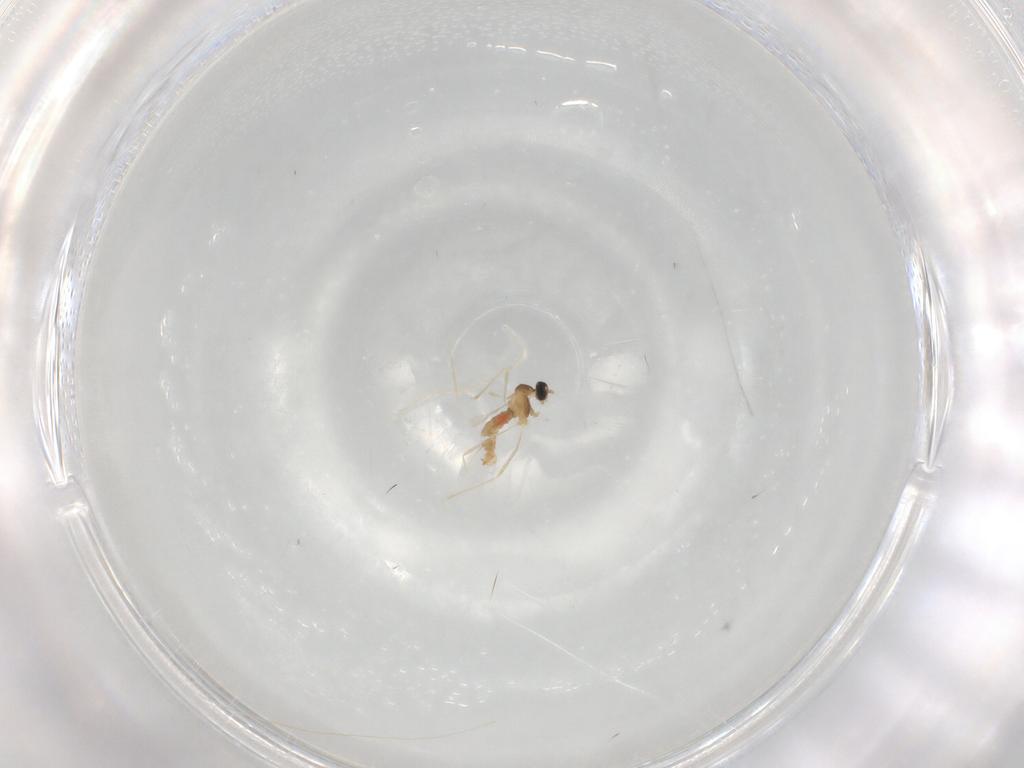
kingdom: Animalia
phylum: Arthropoda
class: Insecta
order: Diptera
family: Cecidomyiidae
